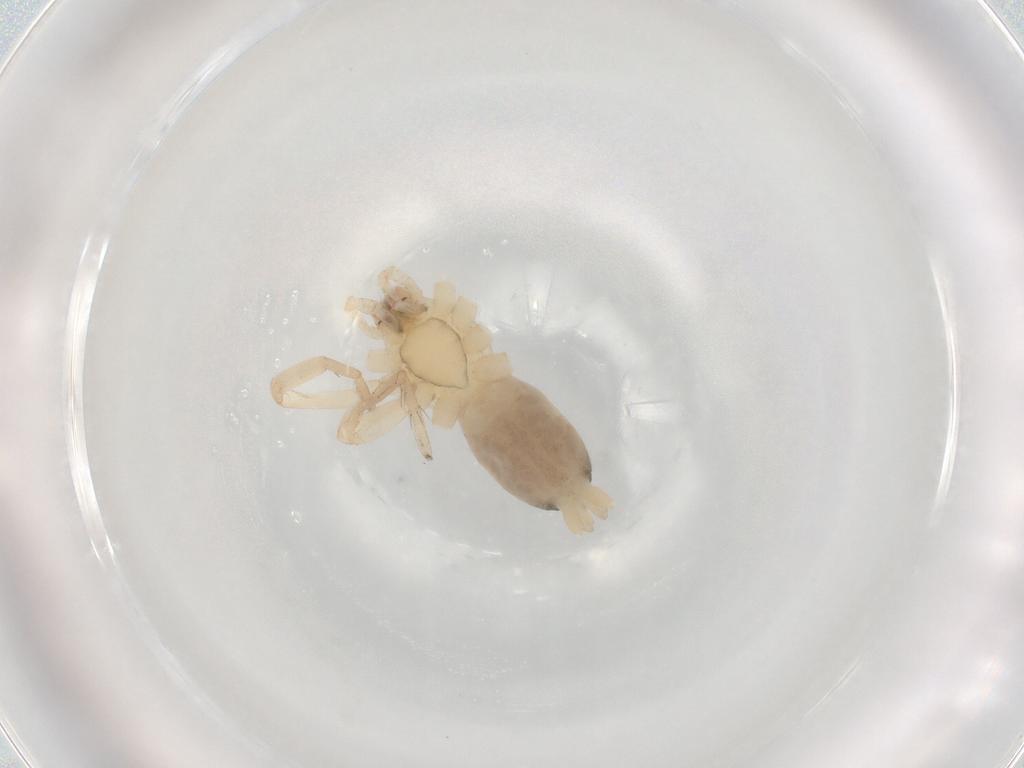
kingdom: Animalia
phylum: Arthropoda
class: Arachnida
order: Araneae
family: Gnaphosidae
